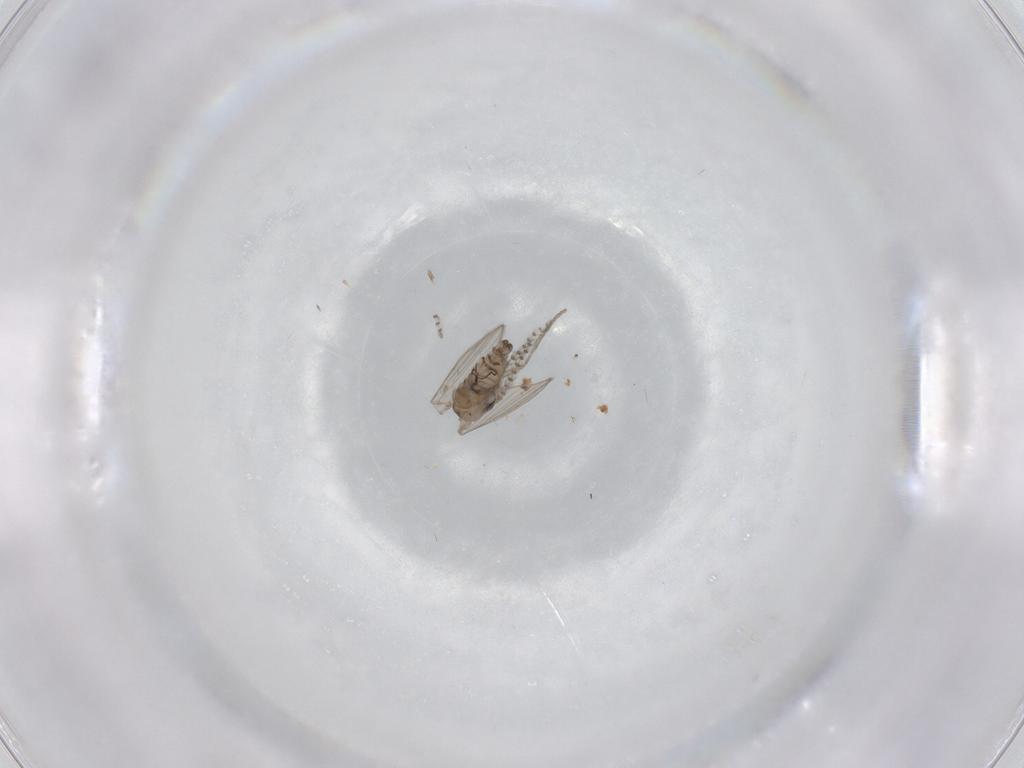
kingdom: Animalia
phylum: Arthropoda
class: Insecta
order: Diptera
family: Psychodidae
